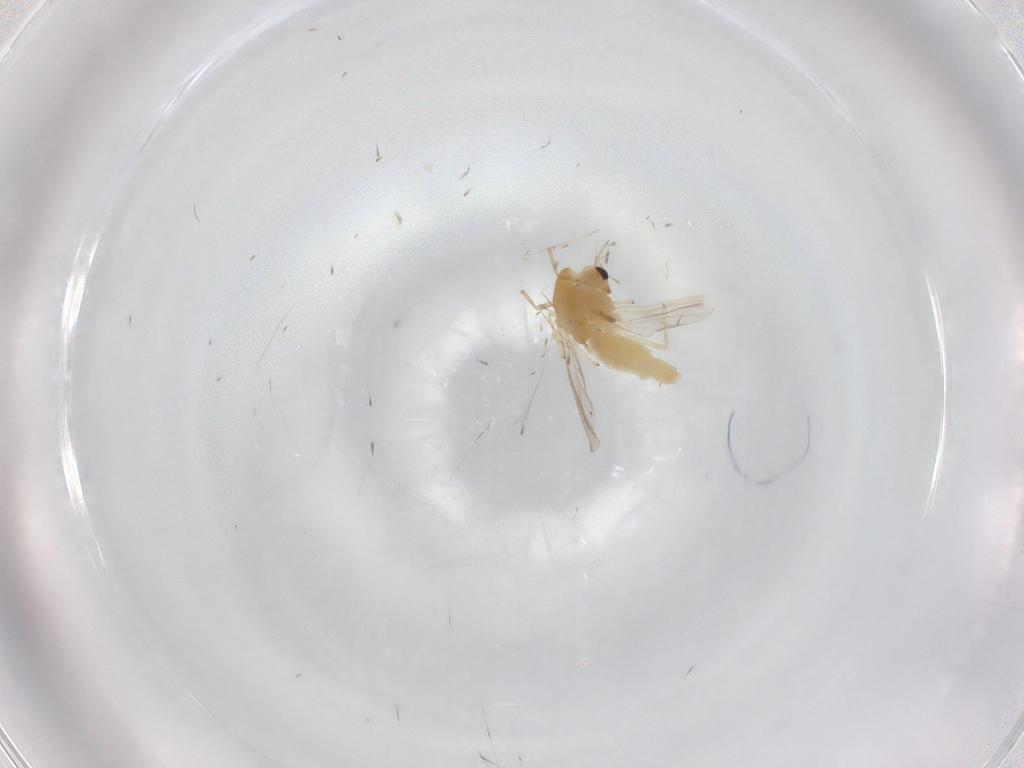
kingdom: Animalia
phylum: Arthropoda
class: Insecta
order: Diptera
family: Chironomidae
